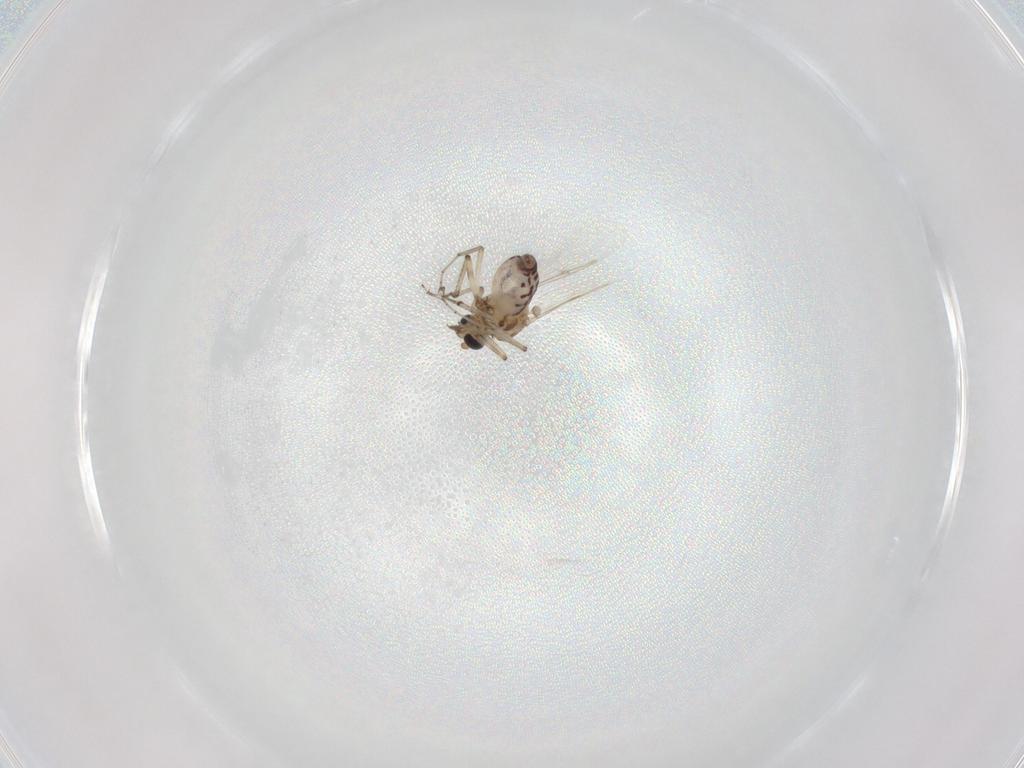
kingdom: Animalia
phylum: Arthropoda
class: Insecta
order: Diptera
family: Ceratopogonidae
